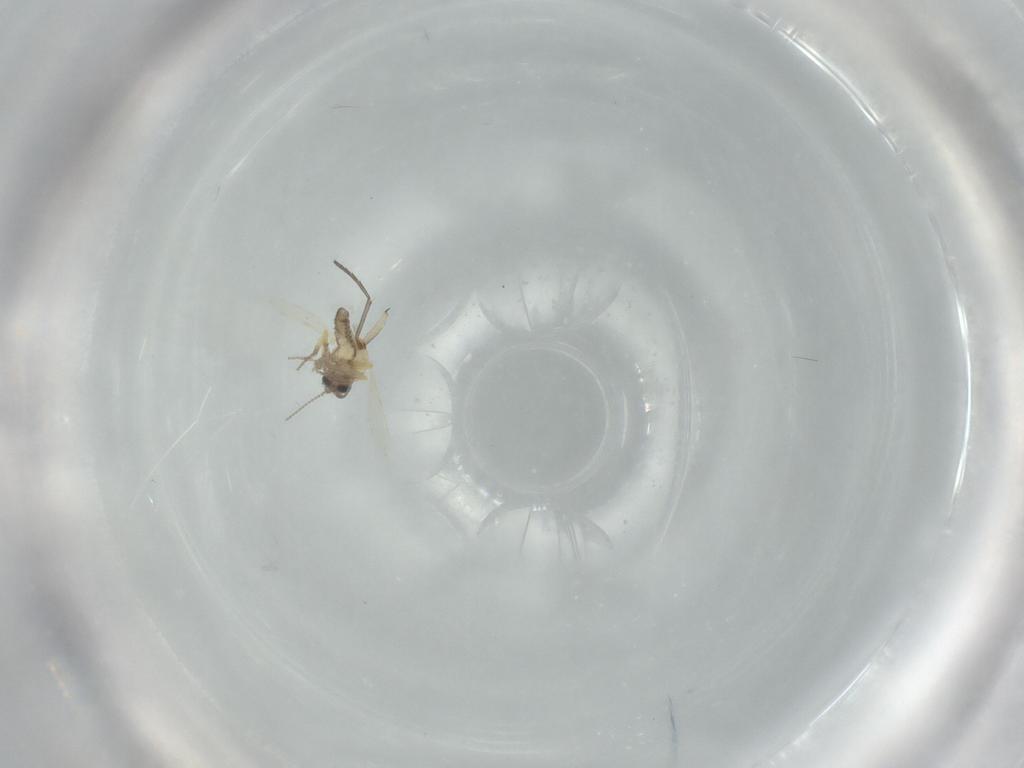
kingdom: Animalia
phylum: Arthropoda
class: Insecta
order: Diptera
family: Sciaridae
